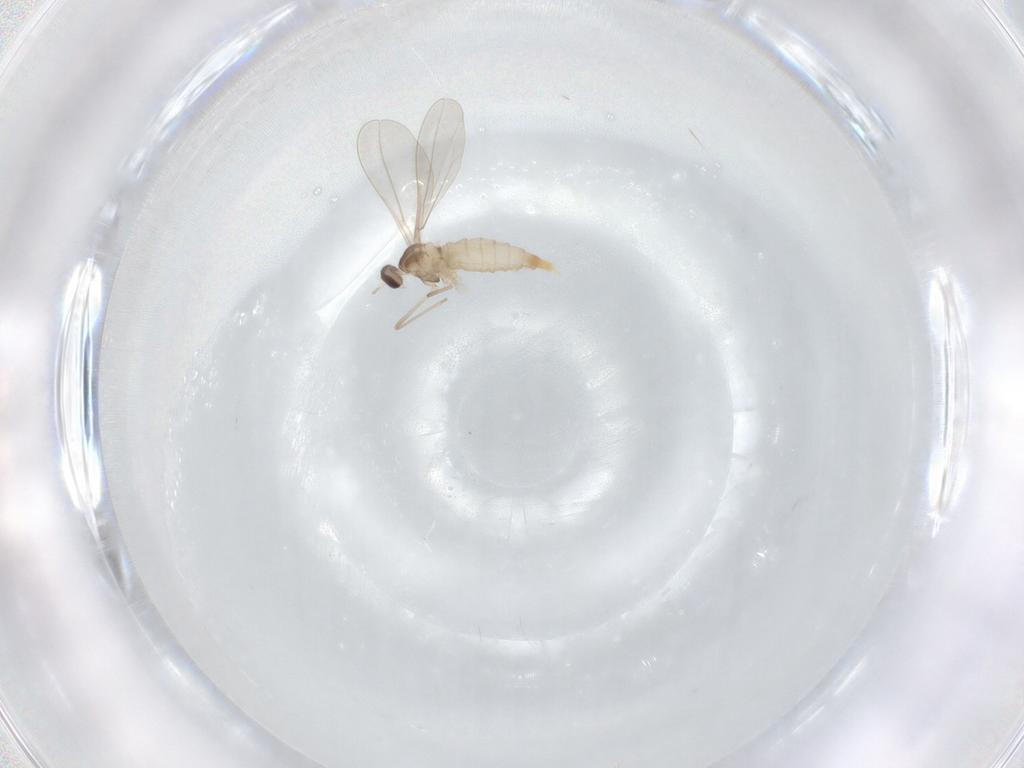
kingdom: Animalia
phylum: Arthropoda
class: Insecta
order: Diptera
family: Cecidomyiidae
